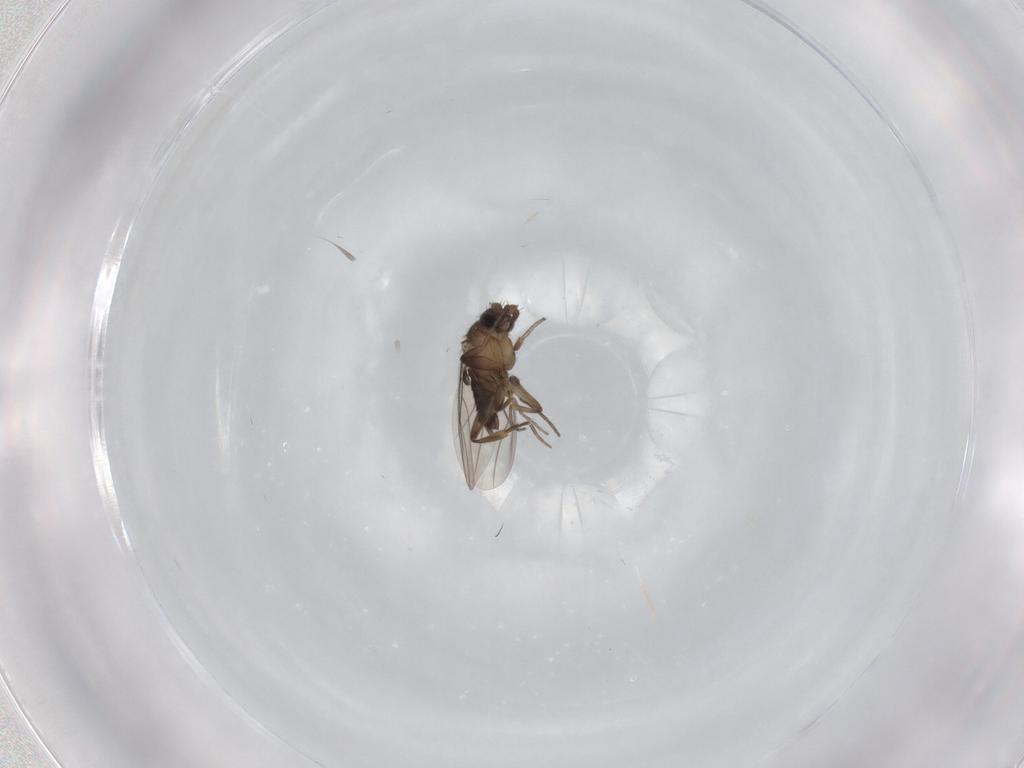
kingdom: Animalia
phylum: Arthropoda
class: Insecta
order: Diptera
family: Phoridae
